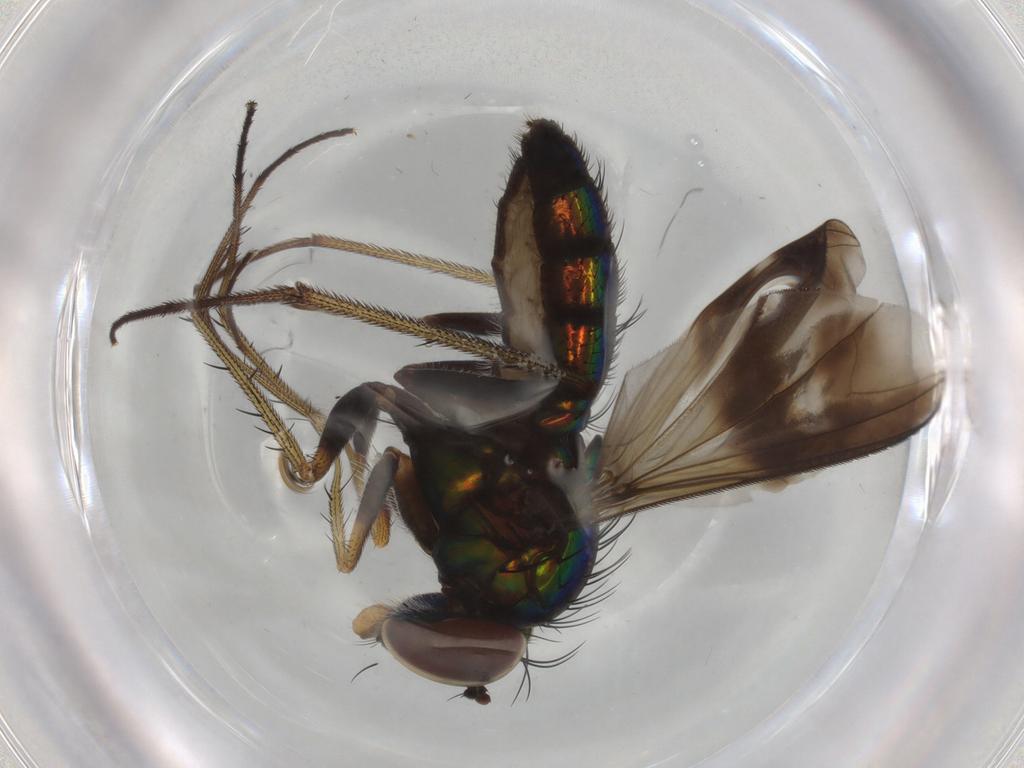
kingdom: Animalia
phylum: Arthropoda
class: Insecta
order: Diptera
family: Dolichopodidae
